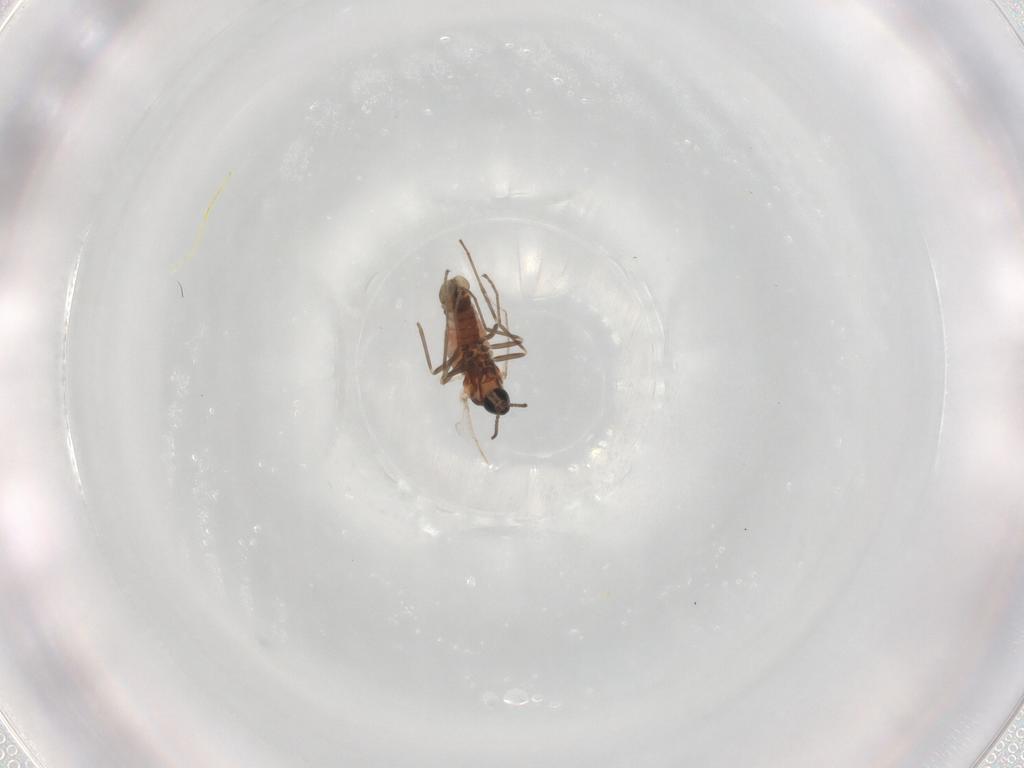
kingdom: Animalia
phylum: Arthropoda
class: Insecta
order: Diptera
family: Cecidomyiidae
